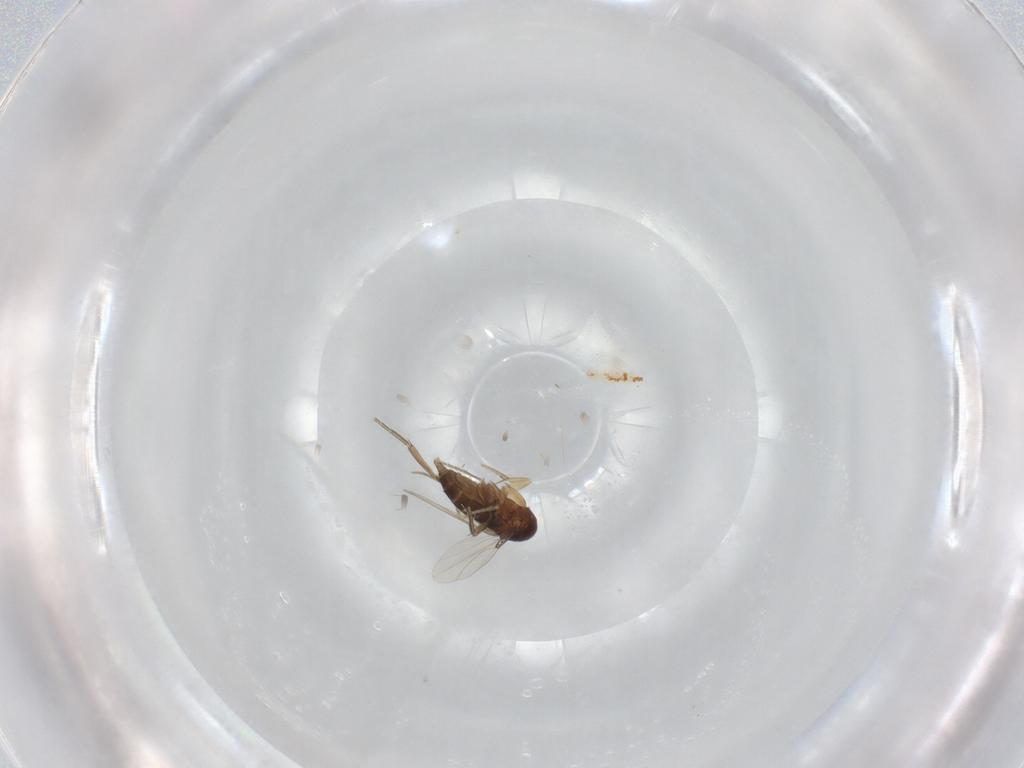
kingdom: Animalia
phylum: Arthropoda
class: Insecta
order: Diptera
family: Phoridae
